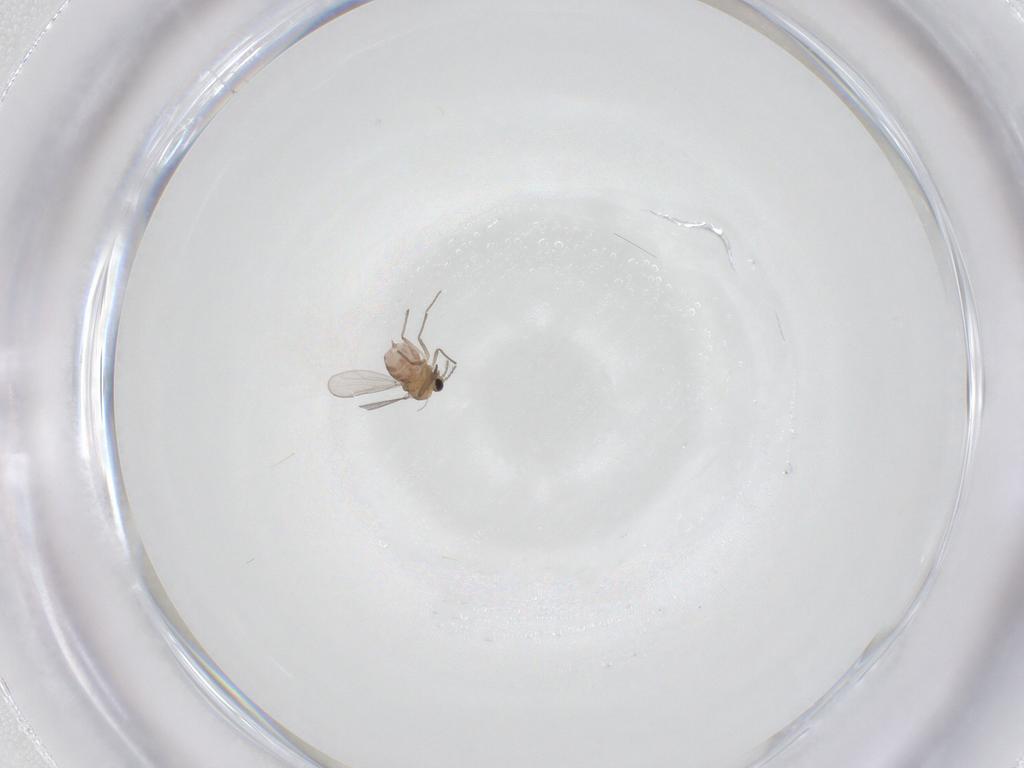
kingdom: Animalia
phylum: Arthropoda
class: Insecta
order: Diptera
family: Chironomidae
